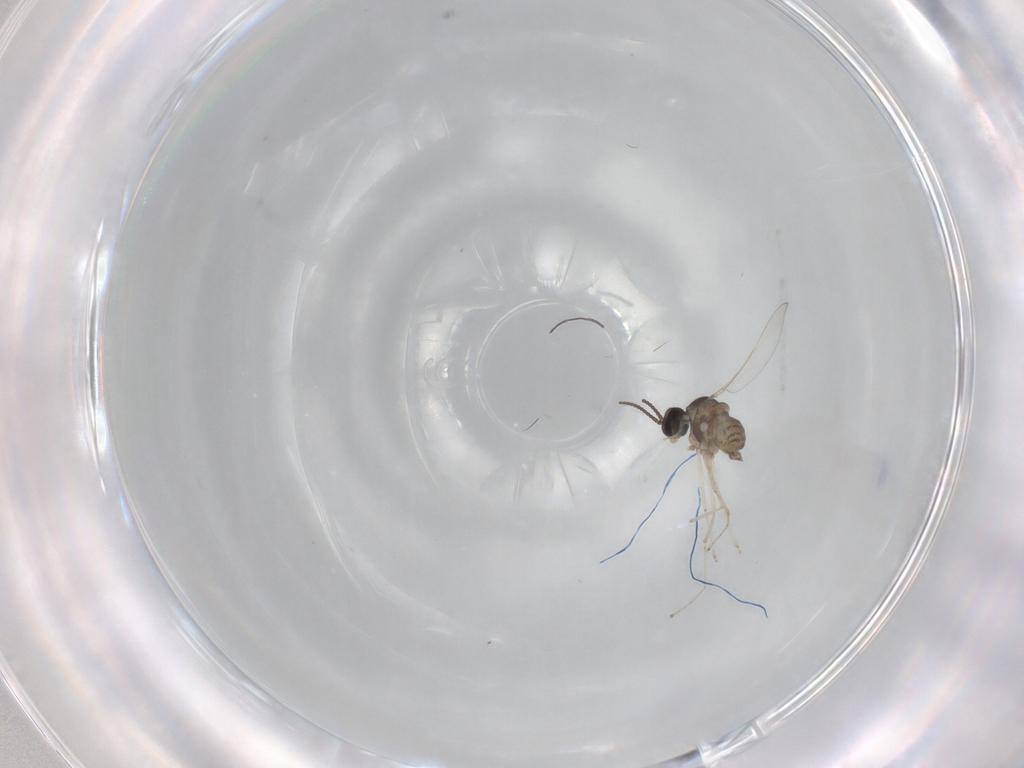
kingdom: Animalia
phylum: Arthropoda
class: Insecta
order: Diptera
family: Cecidomyiidae
